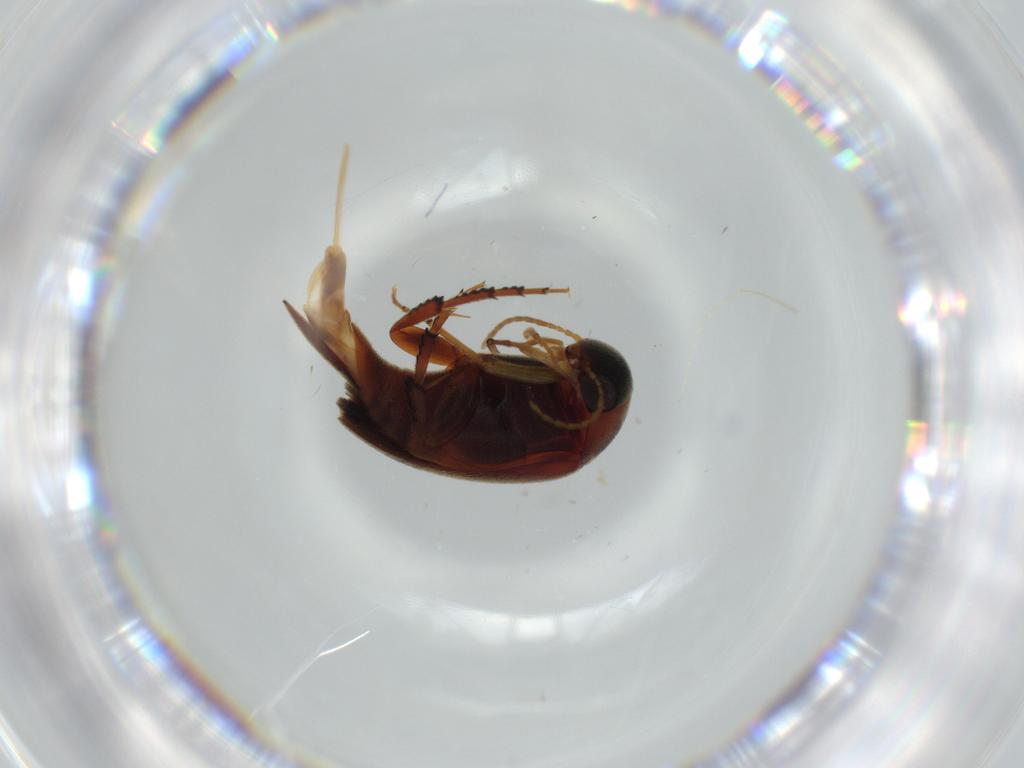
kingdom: Animalia
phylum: Arthropoda
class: Insecta
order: Coleoptera
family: Mordellidae
